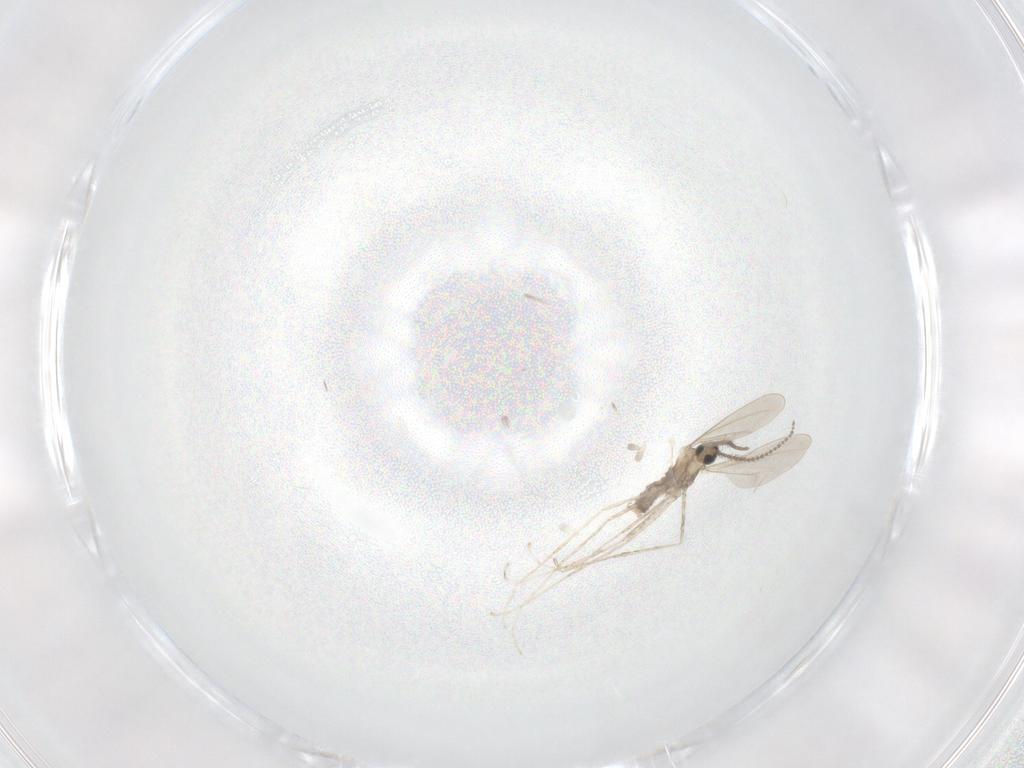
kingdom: Animalia
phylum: Arthropoda
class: Insecta
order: Diptera
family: Cecidomyiidae
